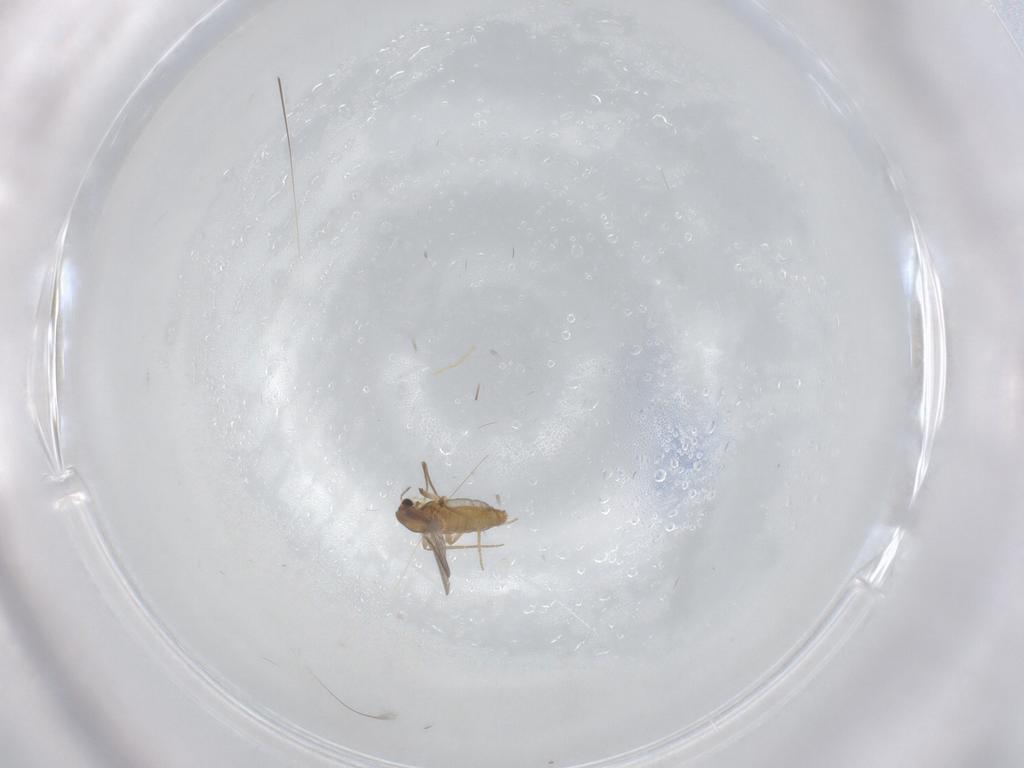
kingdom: Animalia
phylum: Arthropoda
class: Insecta
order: Diptera
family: Chironomidae
